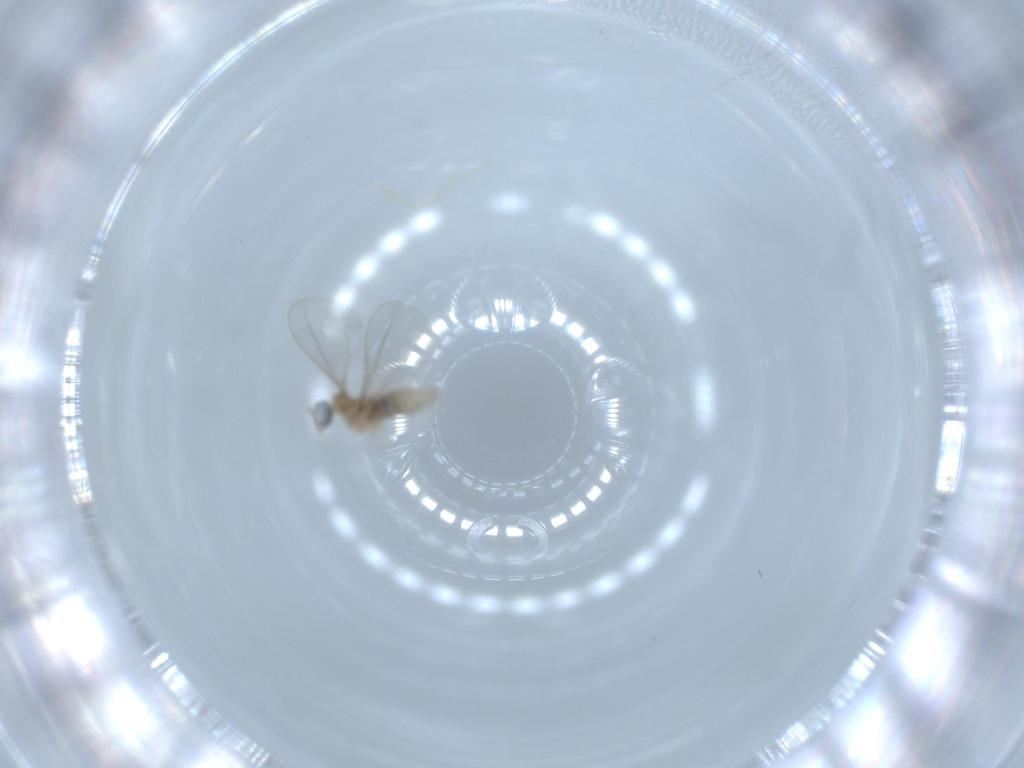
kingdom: Animalia
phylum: Arthropoda
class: Insecta
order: Diptera
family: Cecidomyiidae
